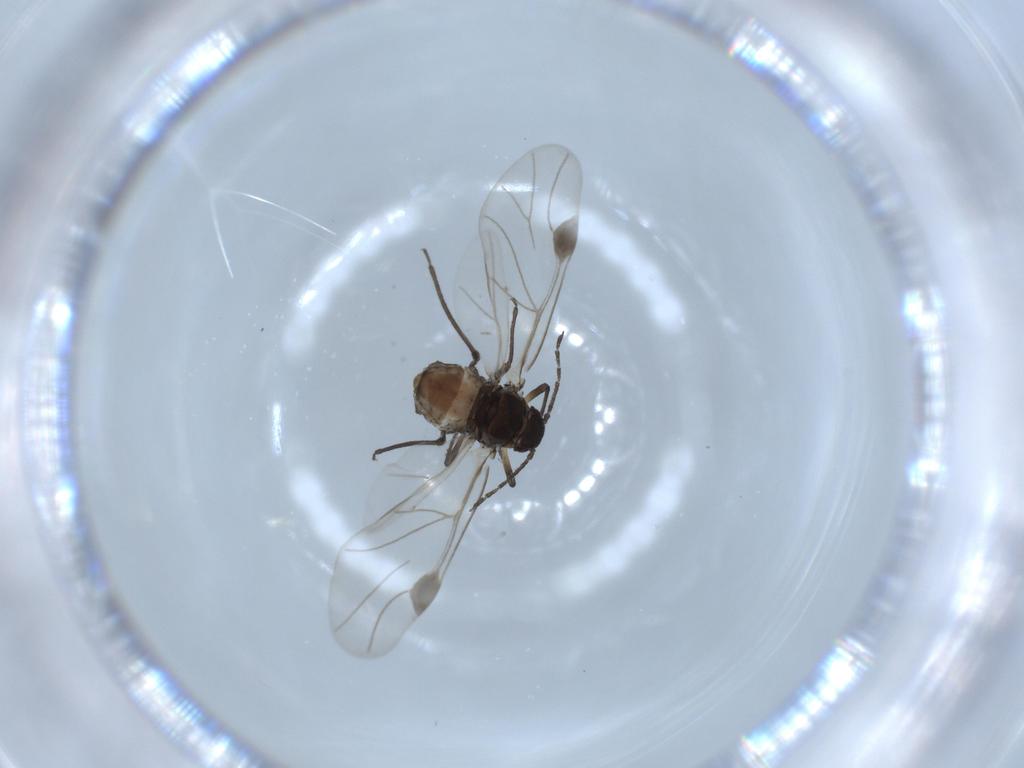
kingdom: Animalia
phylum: Arthropoda
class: Insecta
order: Hemiptera
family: Aphididae
